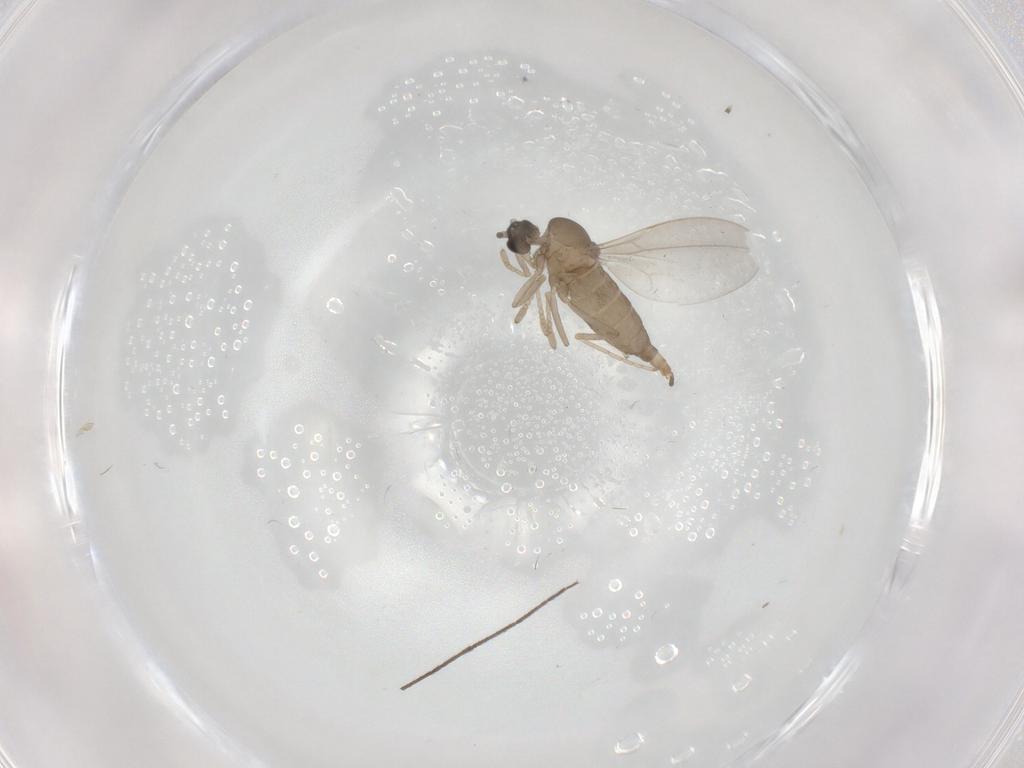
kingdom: Animalia
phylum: Arthropoda
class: Insecta
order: Diptera
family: Cecidomyiidae
